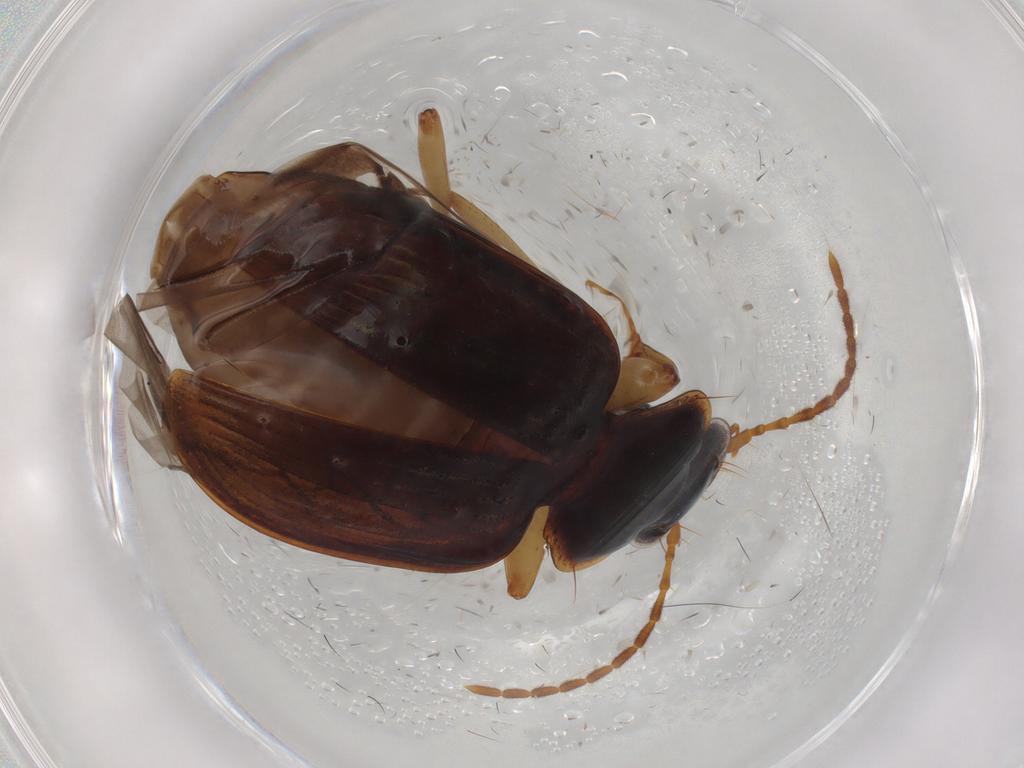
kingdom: Animalia
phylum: Arthropoda
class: Insecta
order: Coleoptera
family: Carabidae
